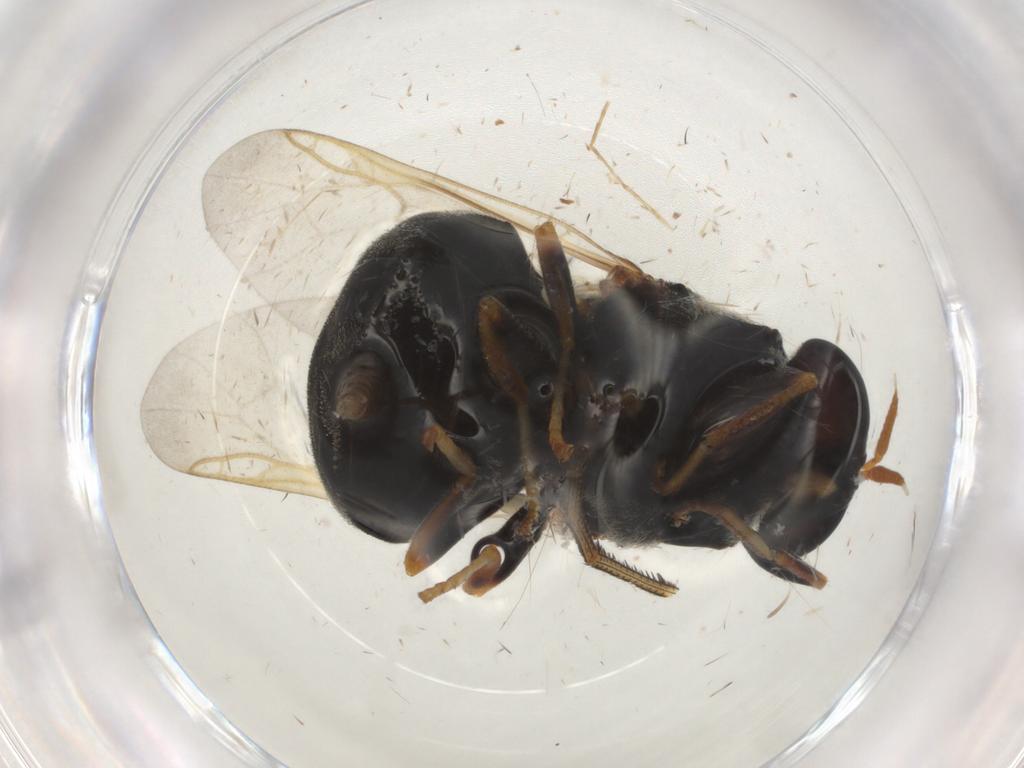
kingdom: Animalia
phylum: Arthropoda
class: Insecta
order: Diptera
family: Stratiomyidae
